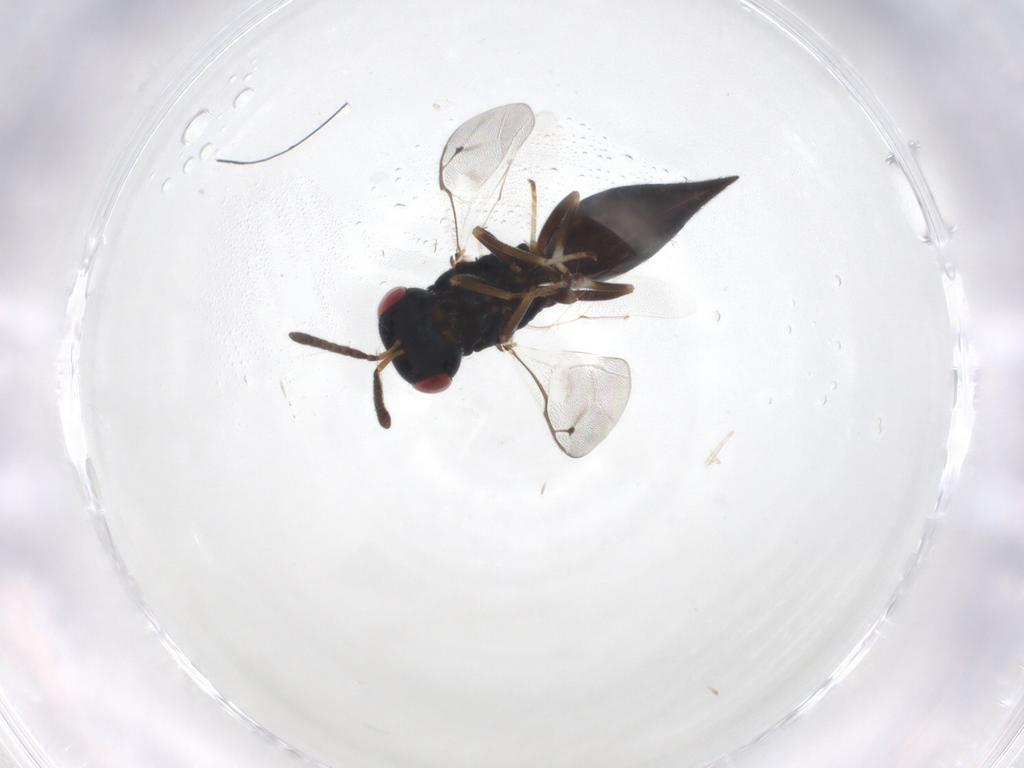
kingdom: Animalia
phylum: Arthropoda
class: Insecta
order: Hymenoptera
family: Pteromalidae
